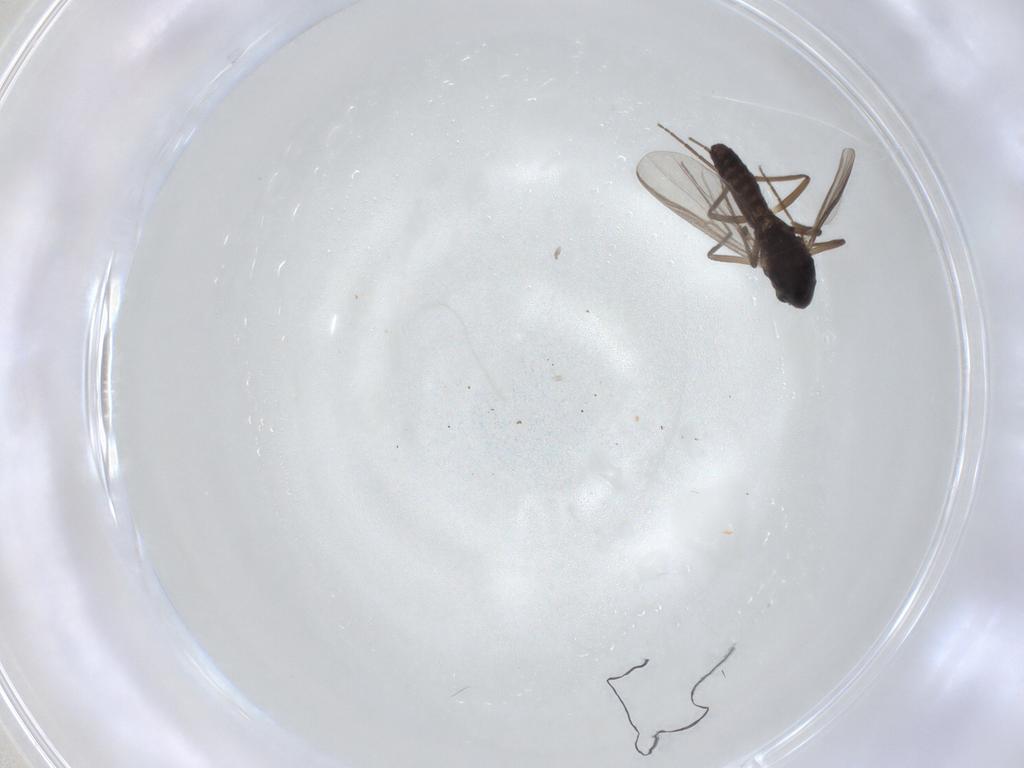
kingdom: Animalia
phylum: Arthropoda
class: Insecta
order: Diptera
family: Chironomidae
